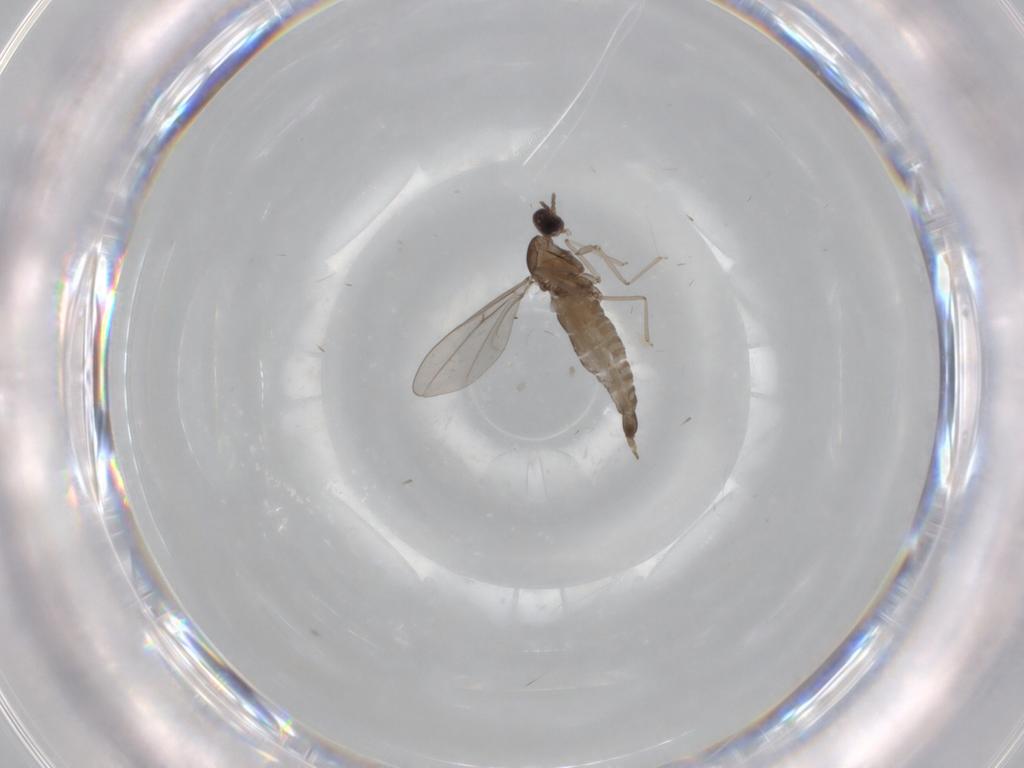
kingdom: Animalia
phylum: Arthropoda
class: Insecta
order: Diptera
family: Cecidomyiidae
